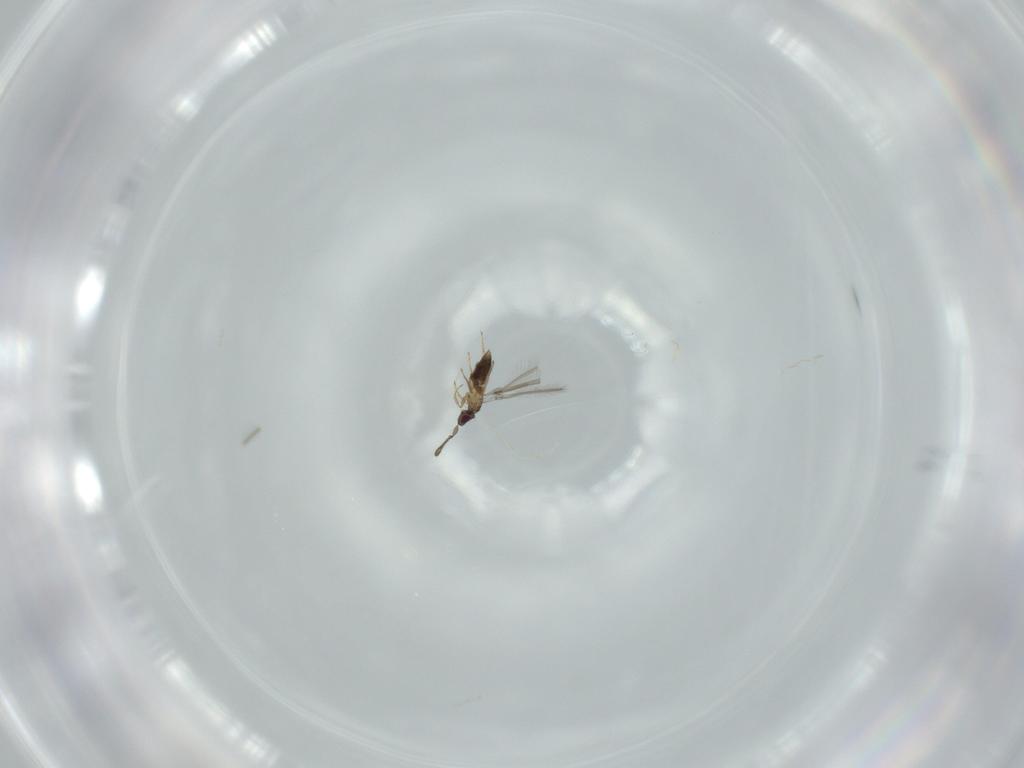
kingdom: Animalia
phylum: Arthropoda
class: Insecta
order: Hymenoptera
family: Mymaridae
